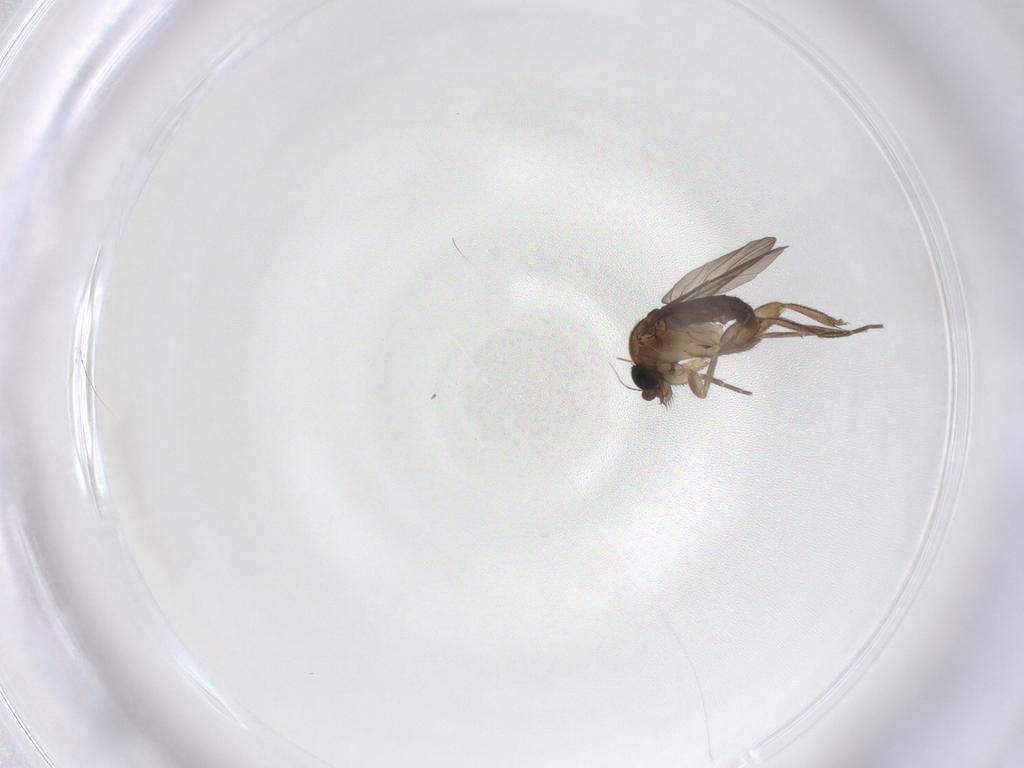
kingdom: Animalia
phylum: Arthropoda
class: Insecta
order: Diptera
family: Phoridae
